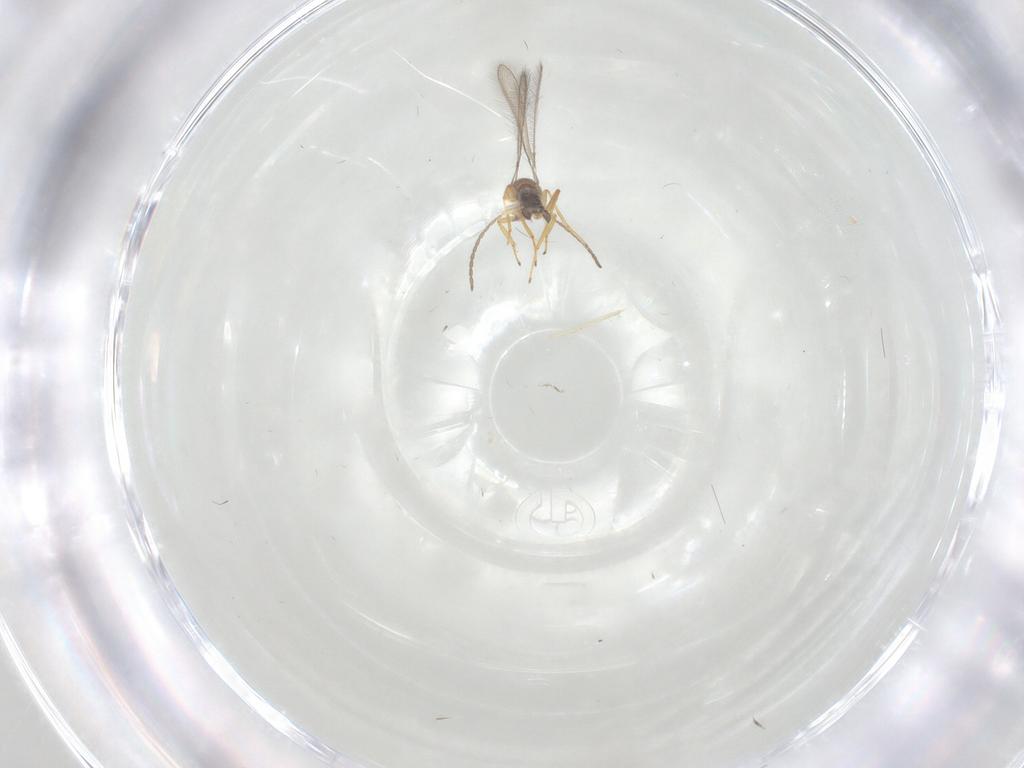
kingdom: Animalia
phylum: Arthropoda
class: Insecta
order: Hymenoptera
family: Mymaridae
